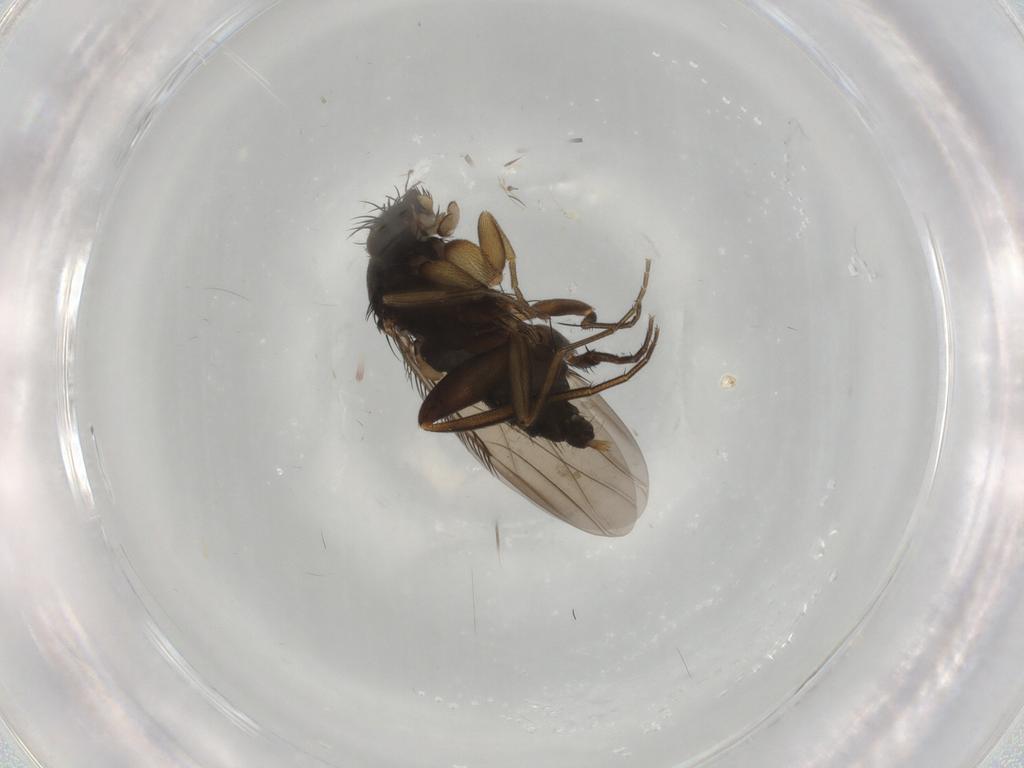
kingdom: Animalia
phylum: Arthropoda
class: Insecta
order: Diptera
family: Phoridae
